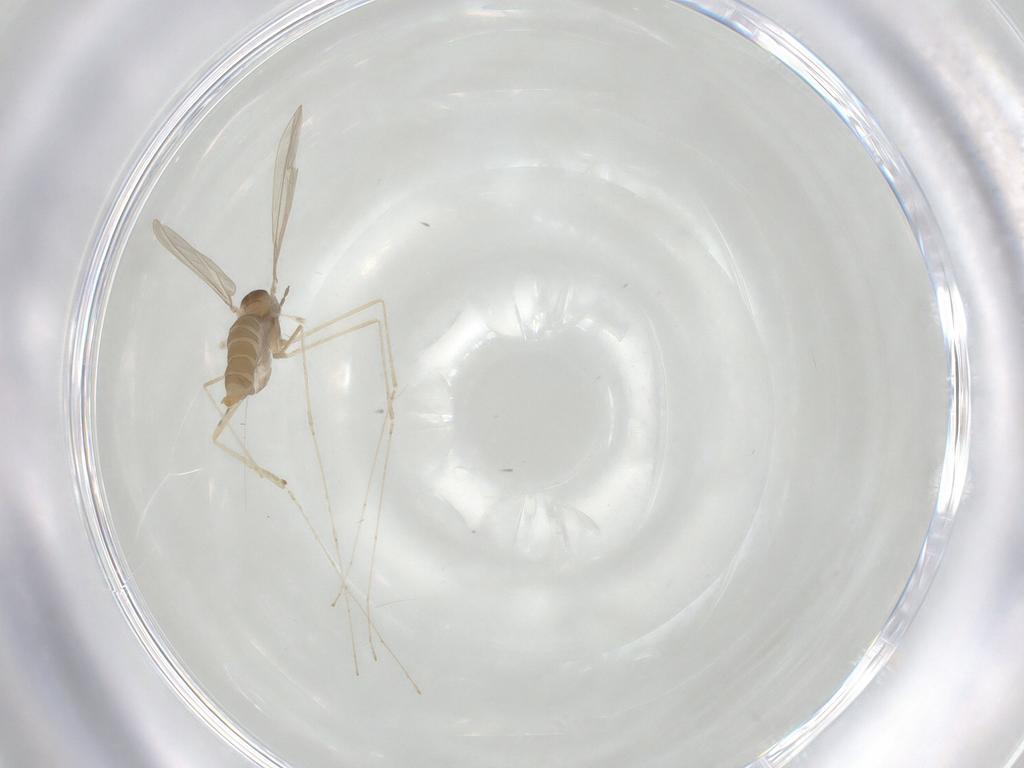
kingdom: Animalia
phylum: Arthropoda
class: Insecta
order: Diptera
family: Cecidomyiidae
